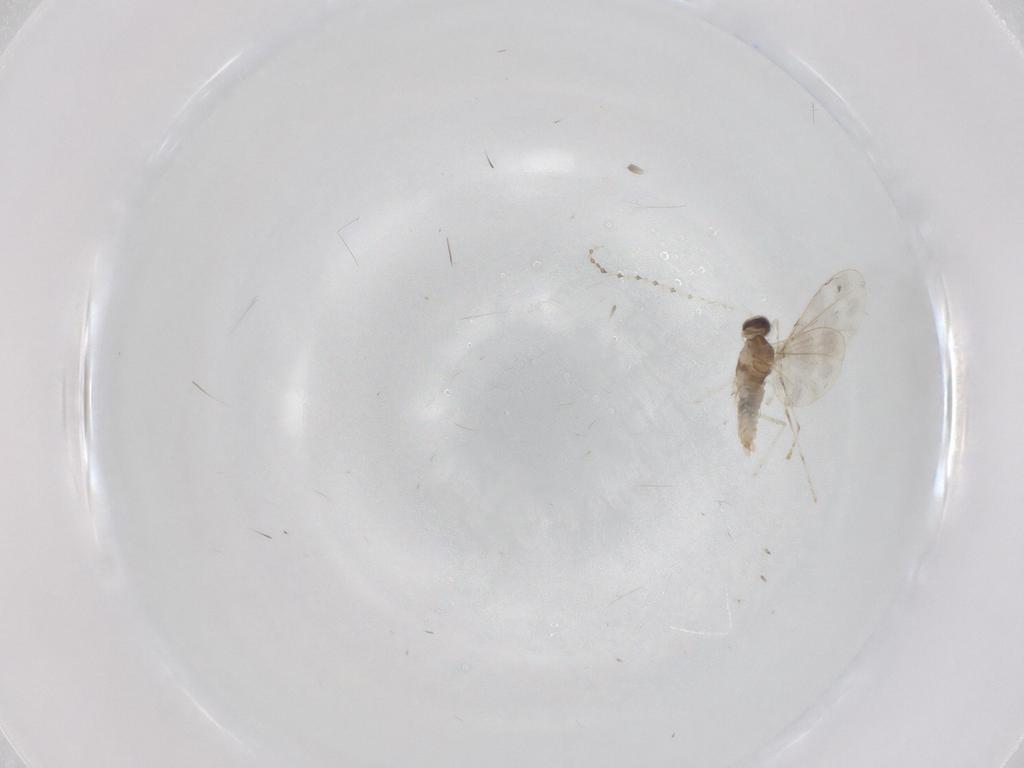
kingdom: Animalia
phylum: Arthropoda
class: Insecta
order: Diptera
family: Cecidomyiidae
